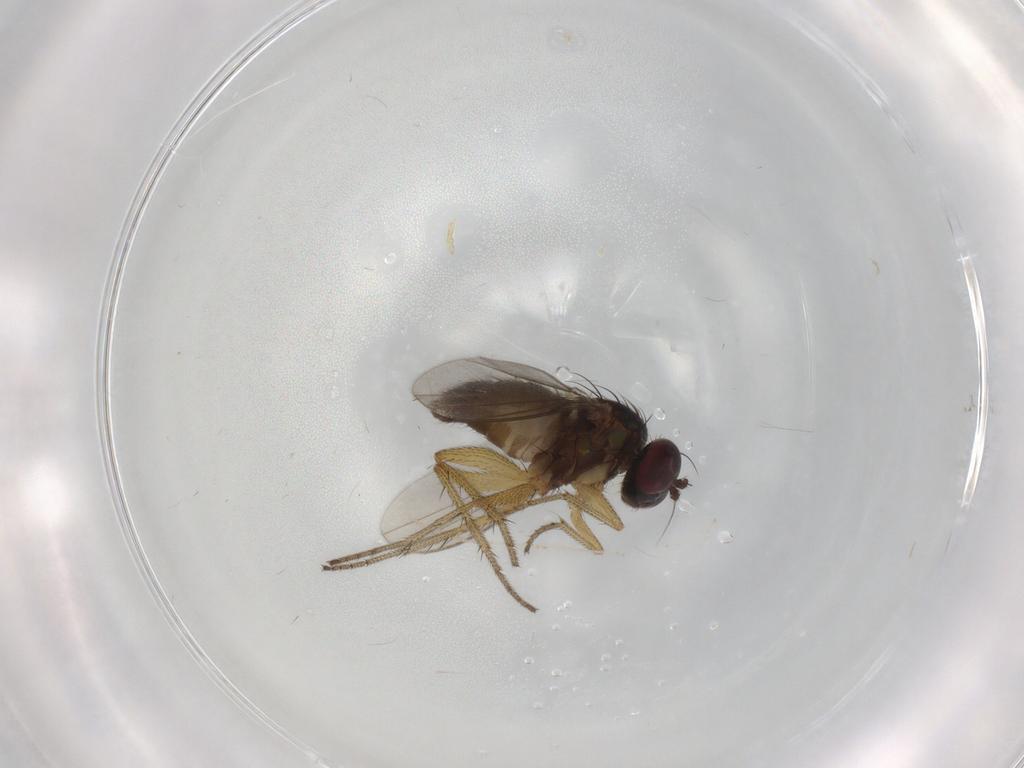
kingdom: Animalia
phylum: Arthropoda
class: Insecta
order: Diptera
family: Dolichopodidae
